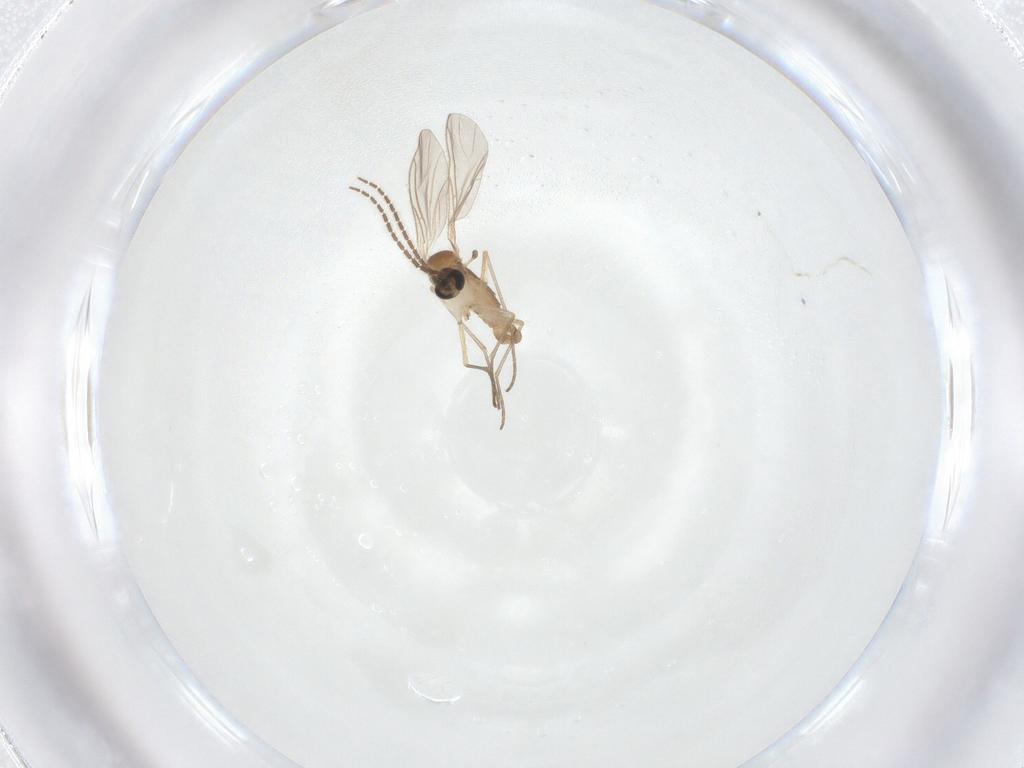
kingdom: Animalia
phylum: Arthropoda
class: Insecta
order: Diptera
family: Sciaridae
